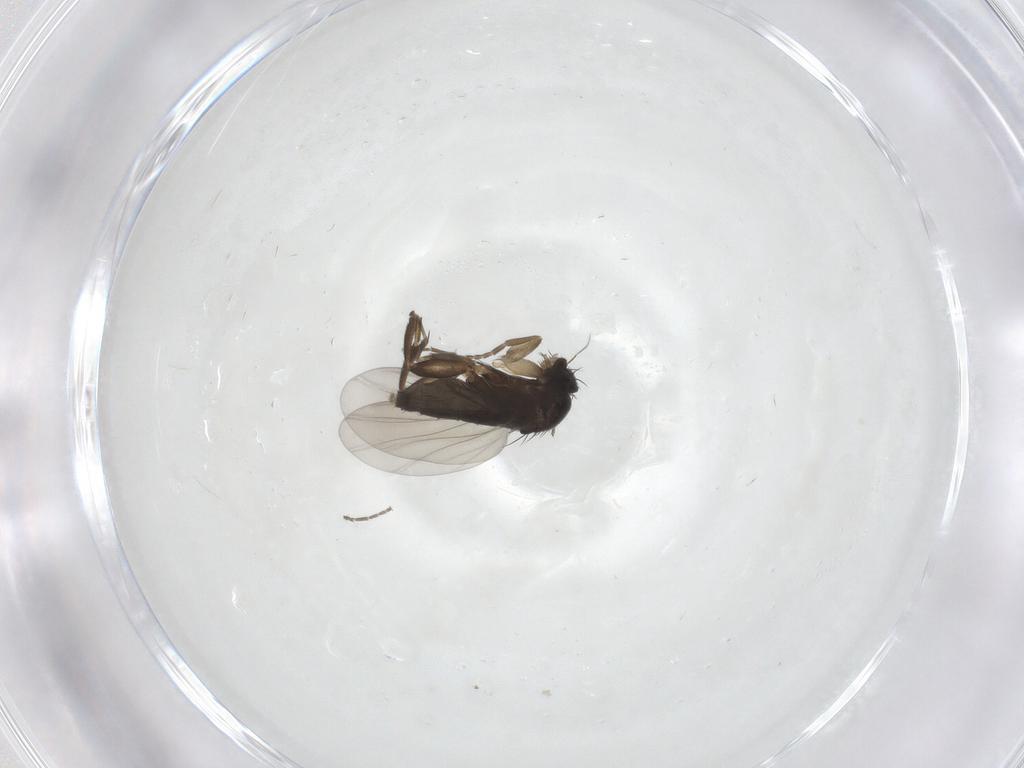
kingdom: Animalia
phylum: Arthropoda
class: Insecta
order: Diptera
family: Phoridae
